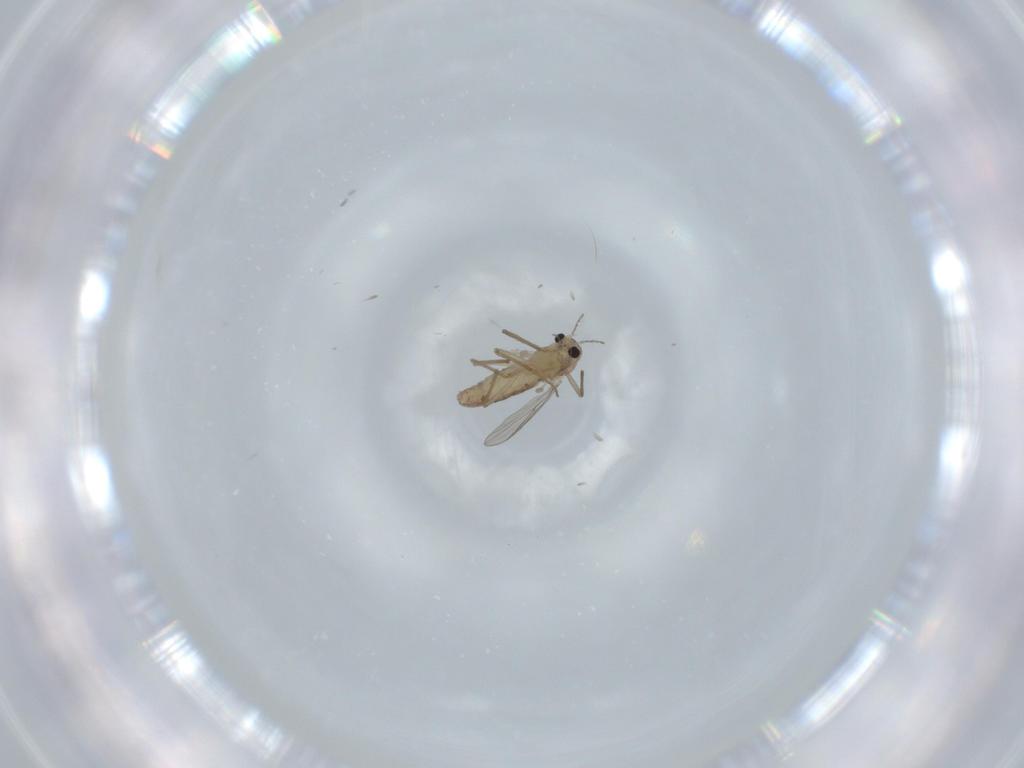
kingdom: Animalia
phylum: Arthropoda
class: Insecta
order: Diptera
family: Chironomidae
